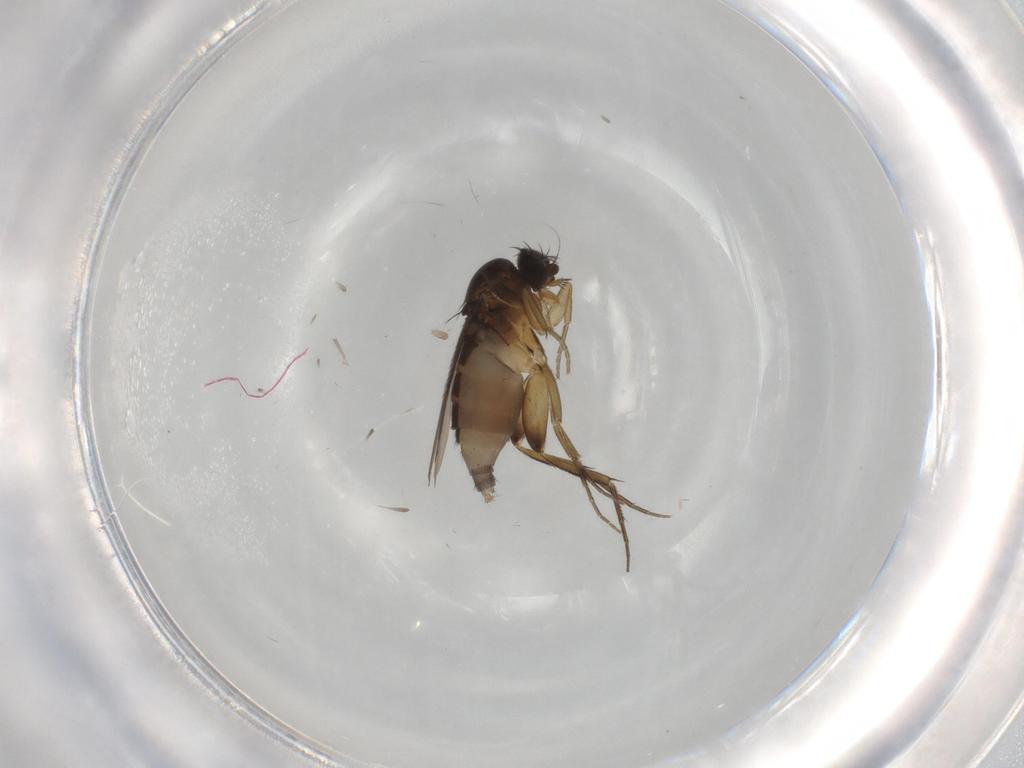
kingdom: Animalia
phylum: Arthropoda
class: Insecta
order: Diptera
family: Phoridae
